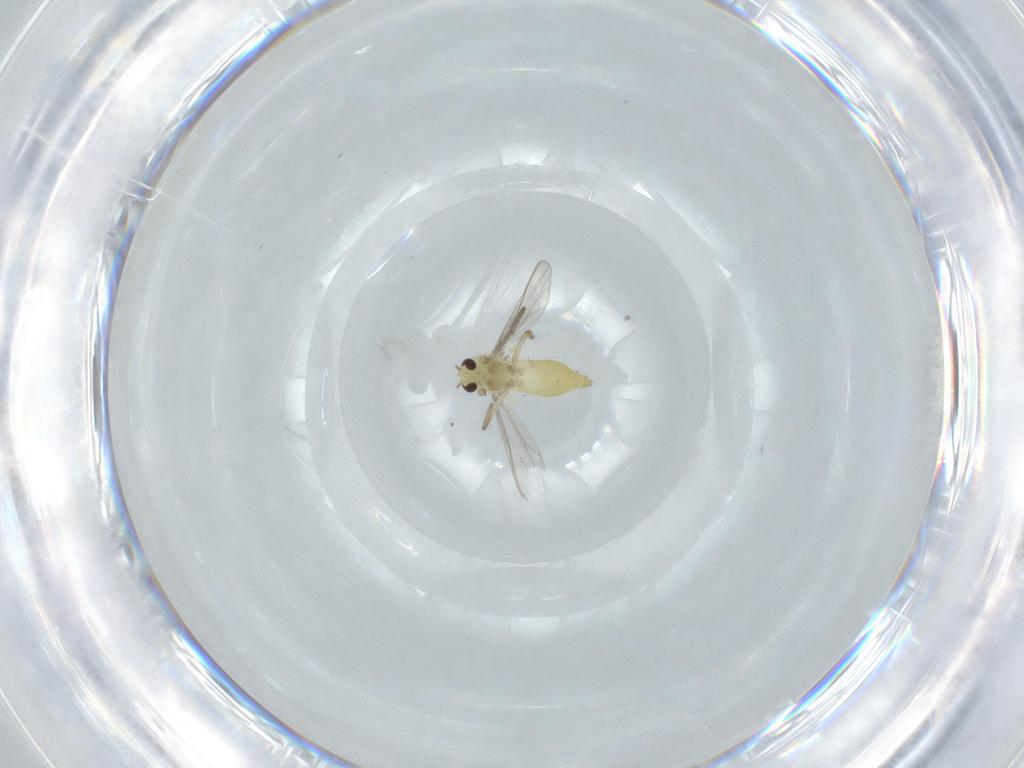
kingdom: Animalia
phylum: Arthropoda
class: Insecta
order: Diptera
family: Chironomidae
